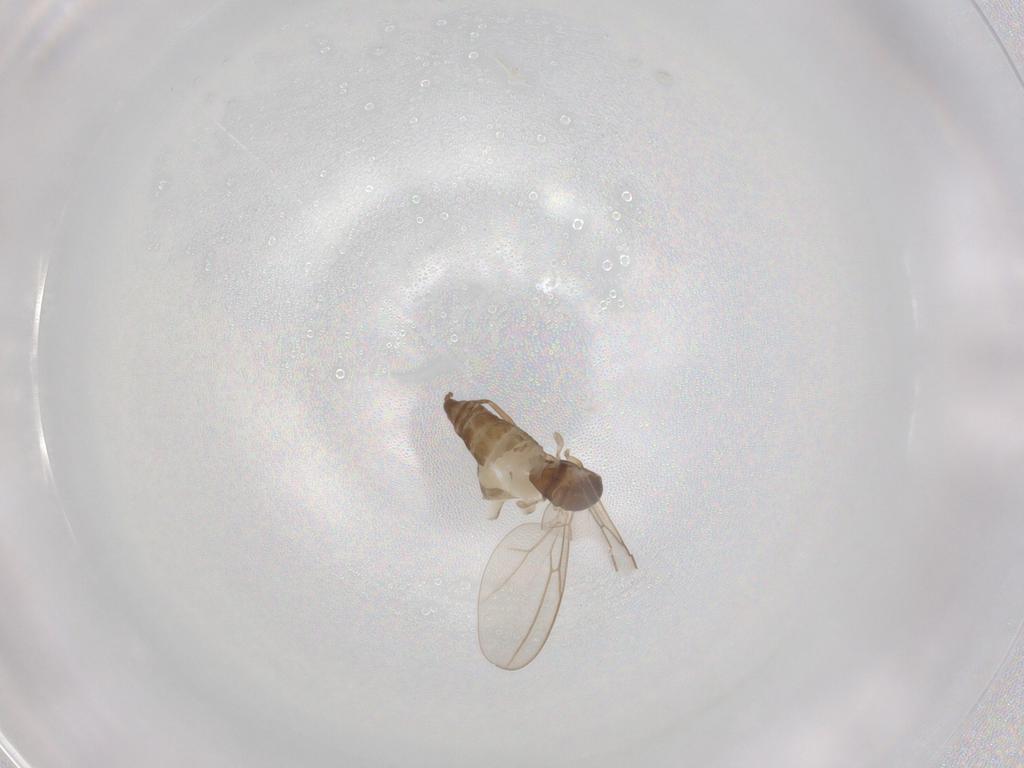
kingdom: Animalia
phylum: Arthropoda
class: Insecta
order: Diptera
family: Cecidomyiidae
